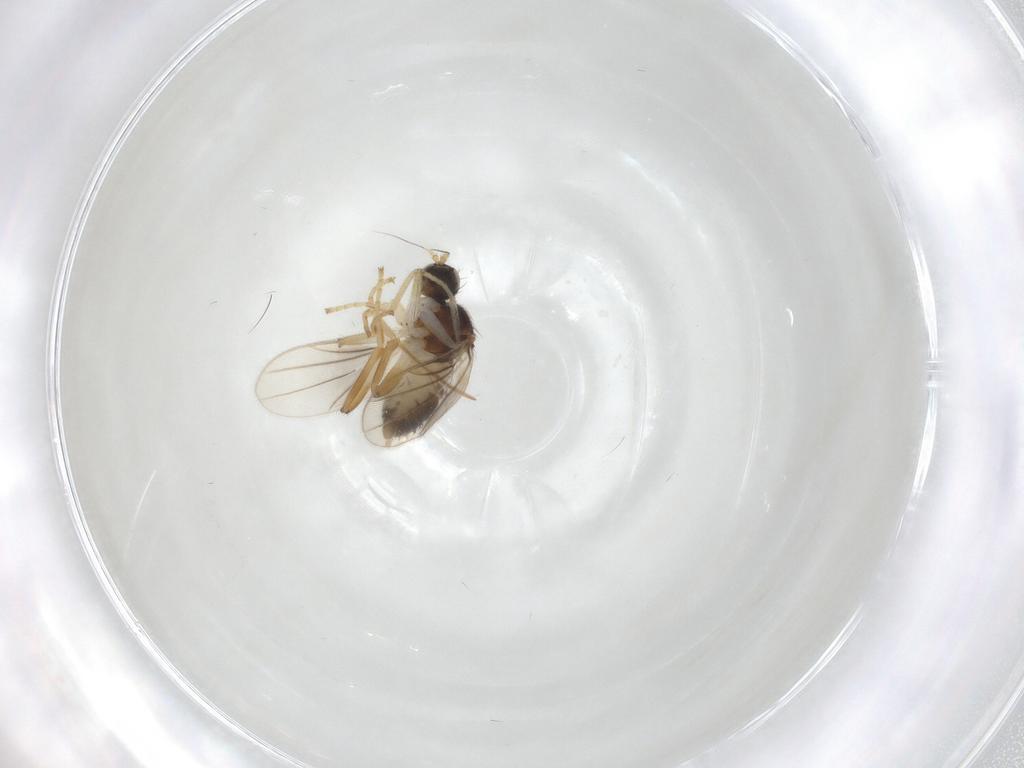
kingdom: Animalia
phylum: Arthropoda
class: Insecta
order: Diptera
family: Hybotidae
